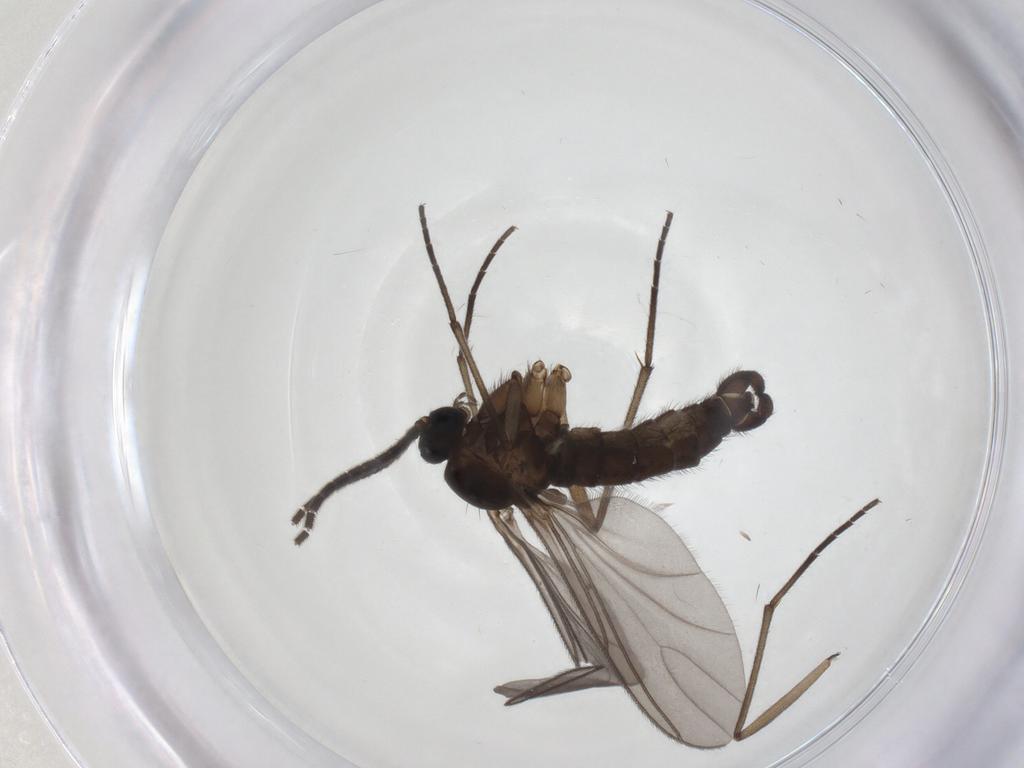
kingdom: Animalia
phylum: Arthropoda
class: Insecta
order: Diptera
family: Sciaridae
